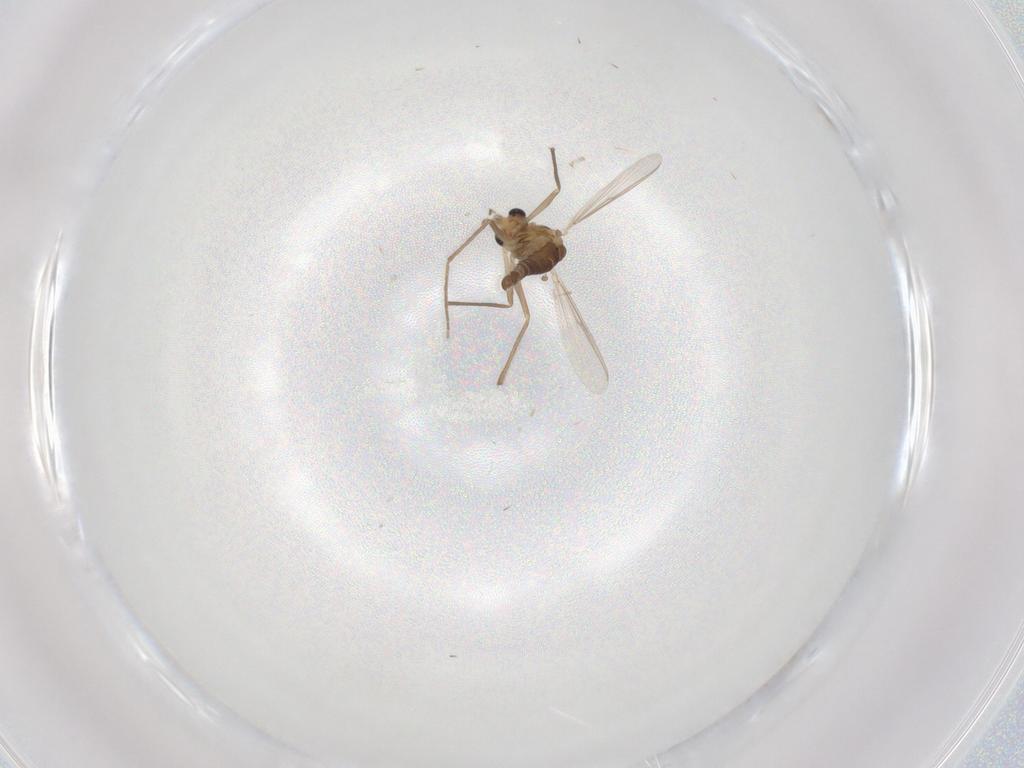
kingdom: Animalia
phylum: Arthropoda
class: Insecta
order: Diptera
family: Chironomidae
